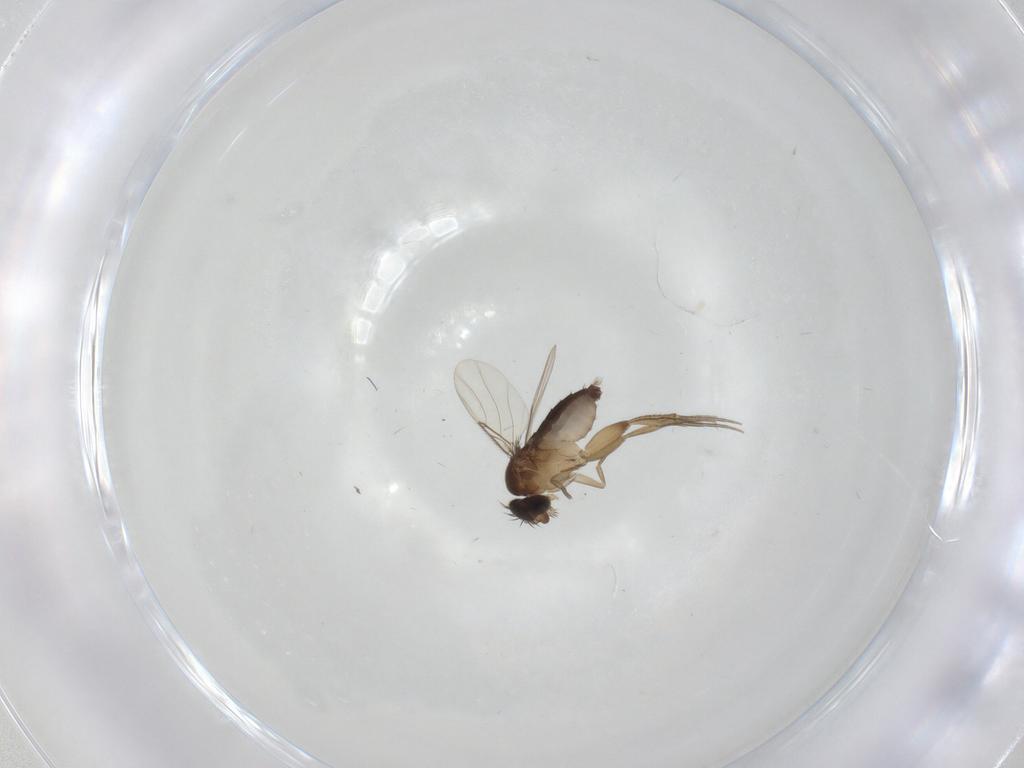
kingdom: Animalia
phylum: Arthropoda
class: Insecta
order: Diptera
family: Phoridae
